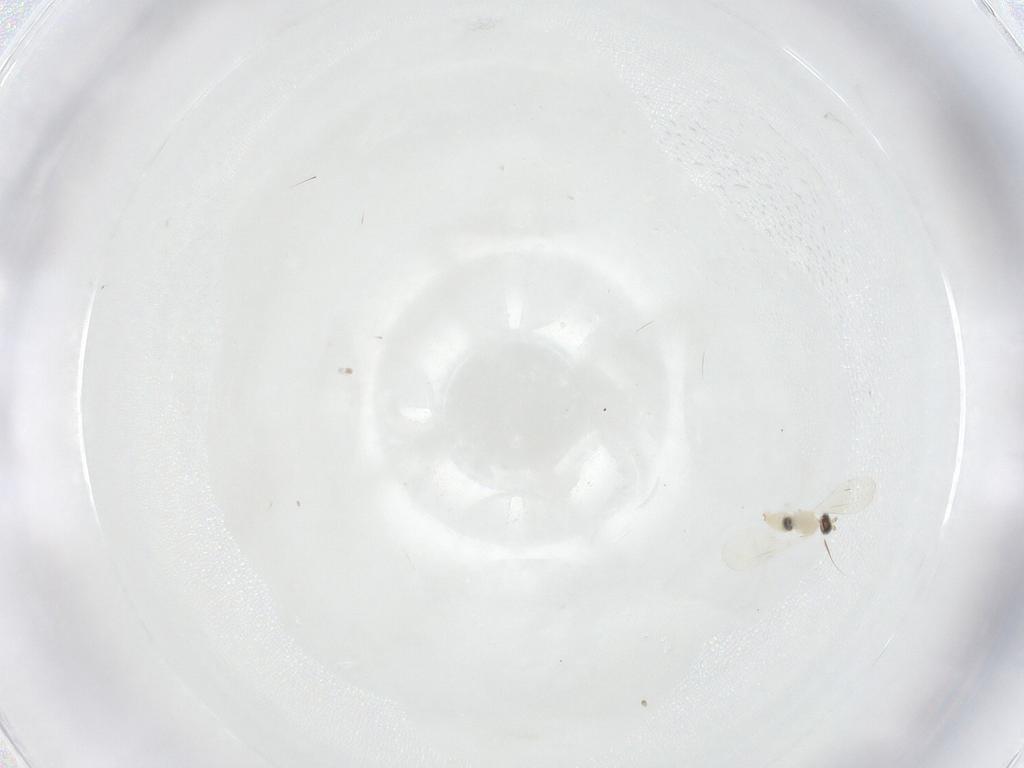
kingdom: Animalia
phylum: Arthropoda
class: Insecta
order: Diptera
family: Cecidomyiidae
